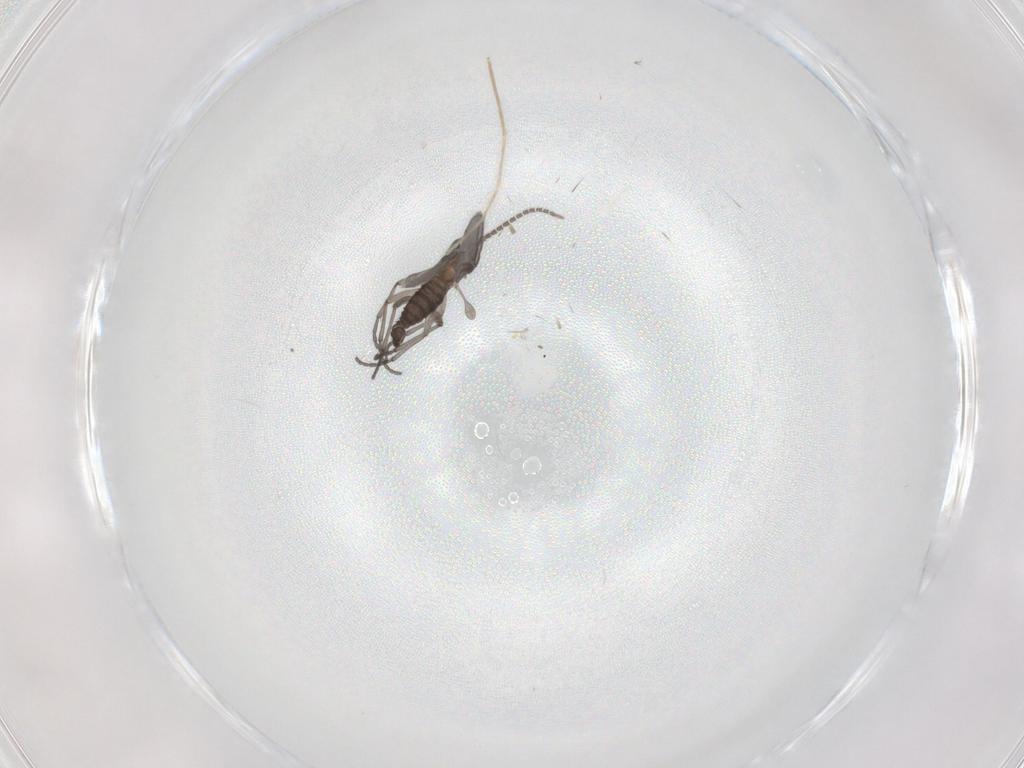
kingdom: Animalia
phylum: Arthropoda
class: Insecta
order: Diptera
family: Sciaridae
